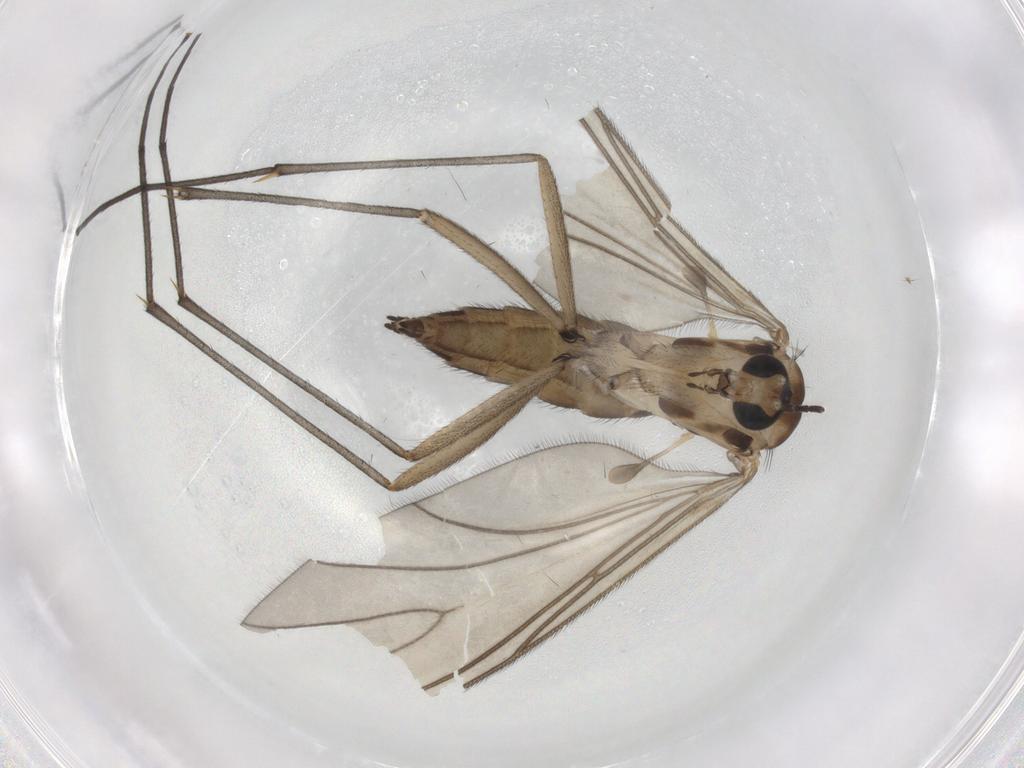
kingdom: Animalia
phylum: Arthropoda
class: Insecta
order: Diptera
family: Sciaridae
